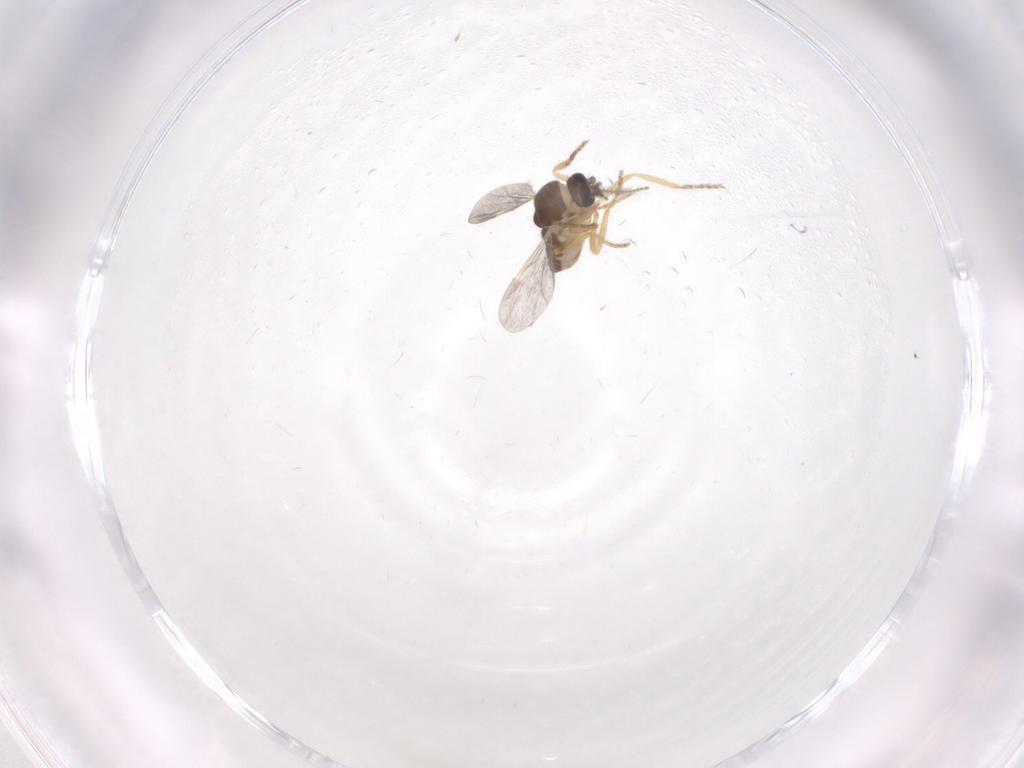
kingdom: Animalia
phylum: Arthropoda
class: Insecta
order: Diptera
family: Ceratopogonidae
